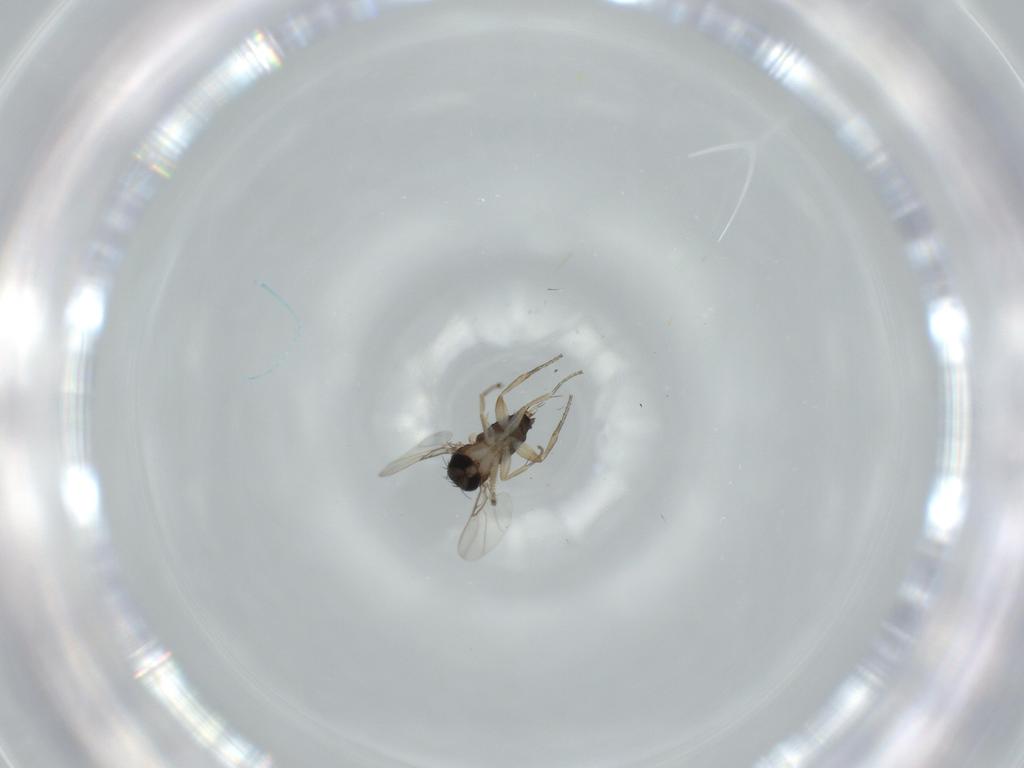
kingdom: Animalia
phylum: Arthropoda
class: Insecta
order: Diptera
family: Phoridae
